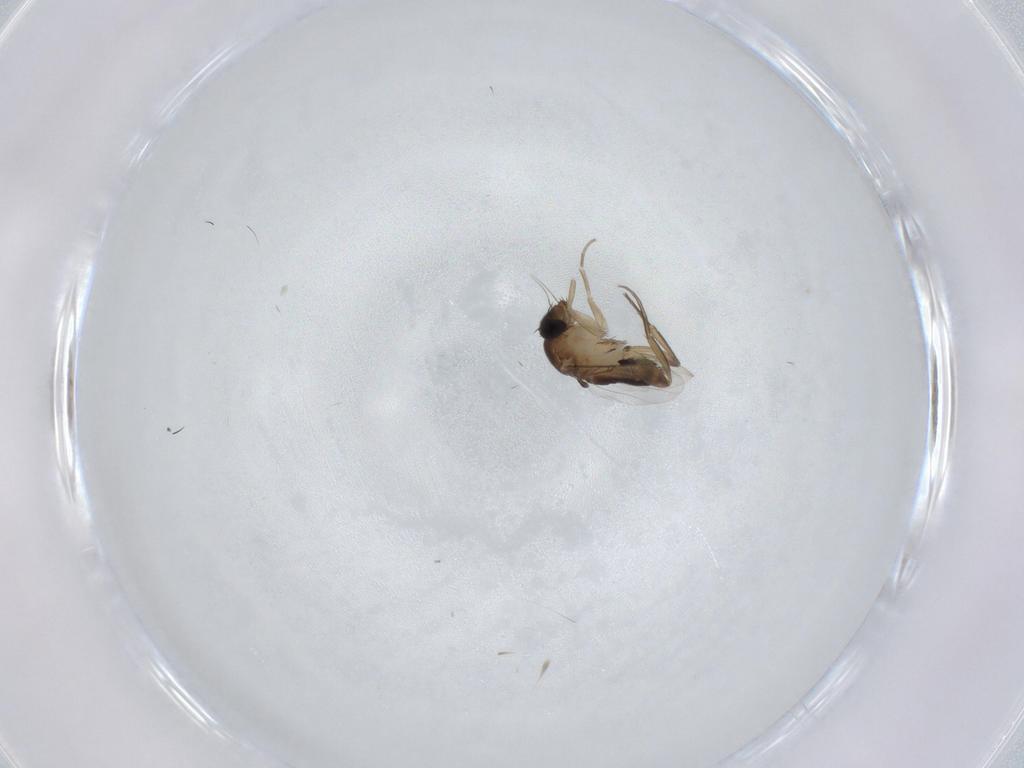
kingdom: Animalia
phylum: Arthropoda
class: Insecta
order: Diptera
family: Phoridae
